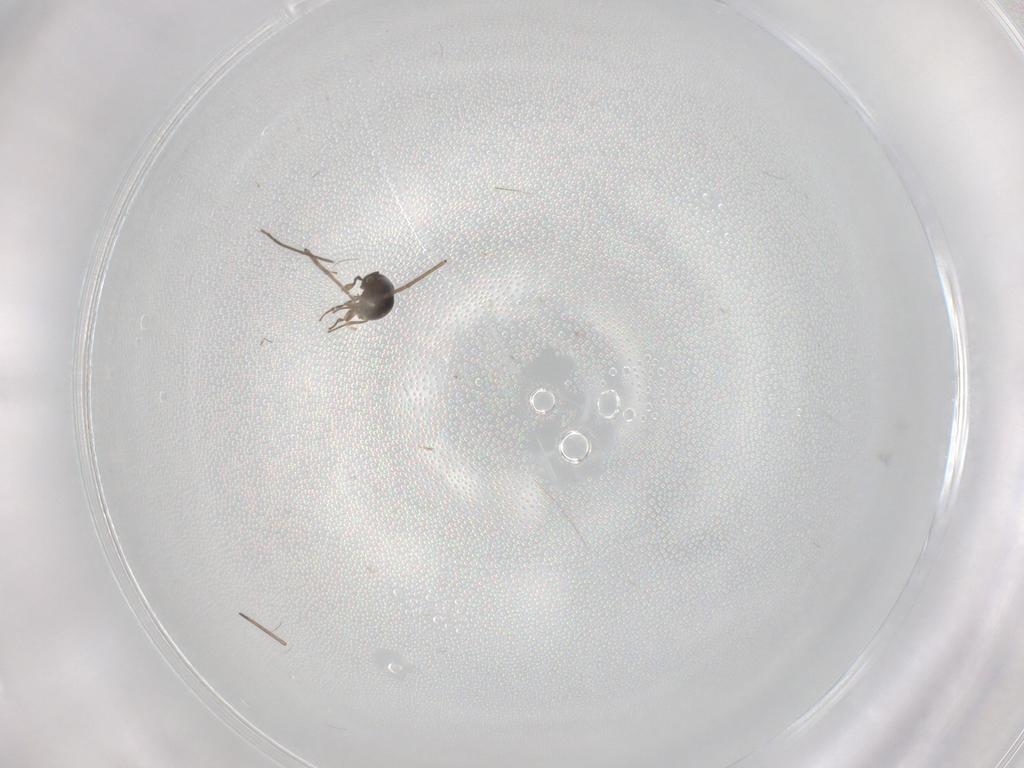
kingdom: Animalia
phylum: Arthropoda
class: Insecta
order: Hymenoptera
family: Scelionidae
